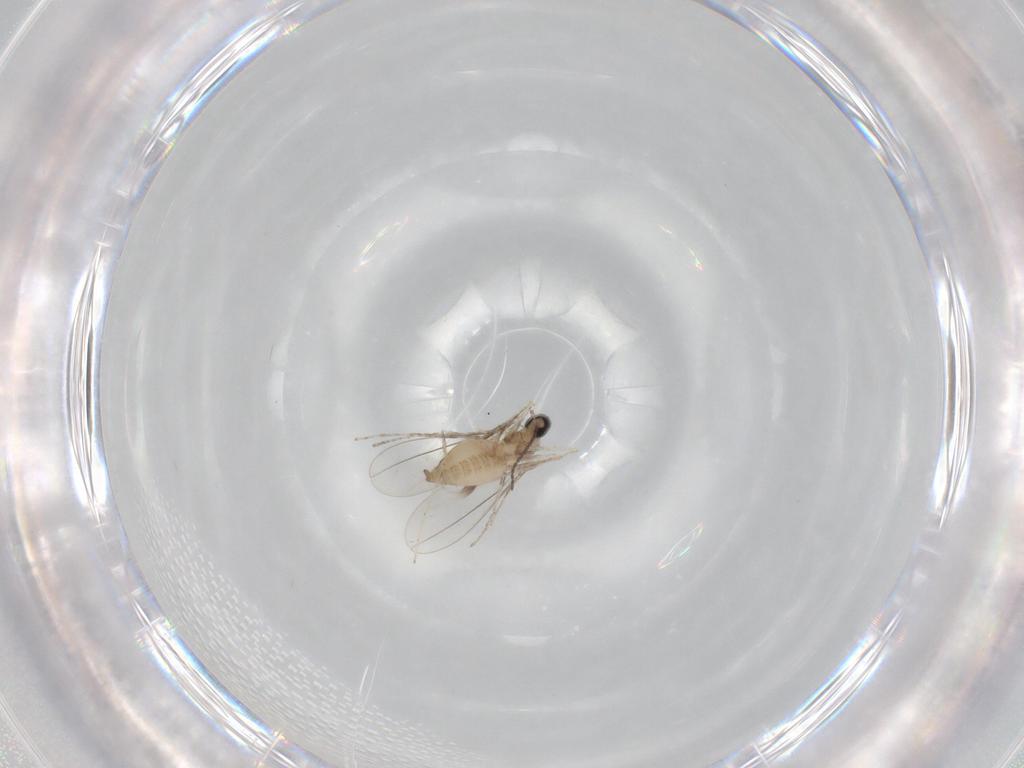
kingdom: Animalia
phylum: Arthropoda
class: Insecta
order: Diptera
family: Cecidomyiidae
